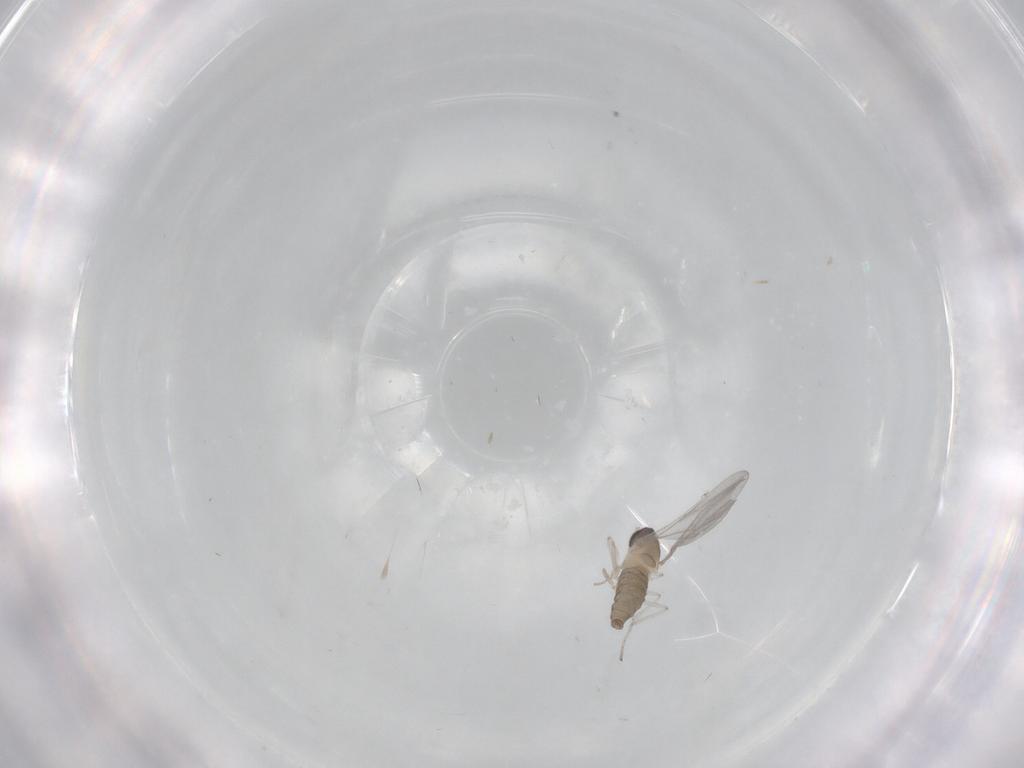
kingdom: Animalia
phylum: Arthropoda
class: Insecta
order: Diptera
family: Cecidomyiidae
